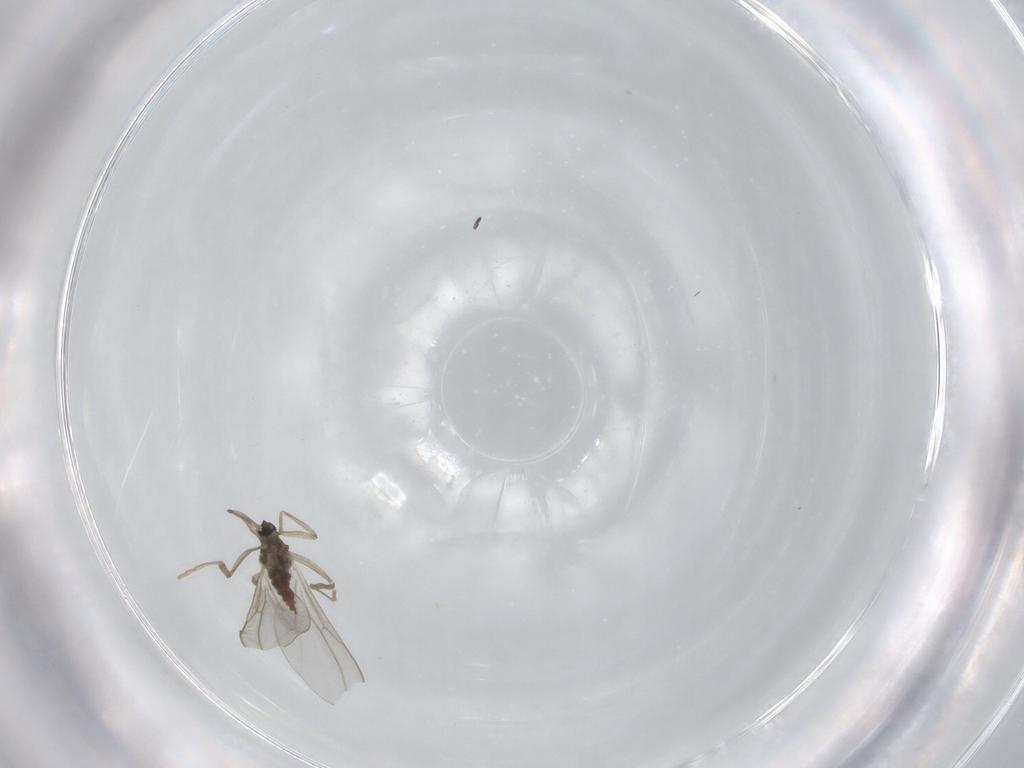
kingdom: Animalia
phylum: Arthropoda
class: Insecta
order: Diptera
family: Cecidomyiidae
